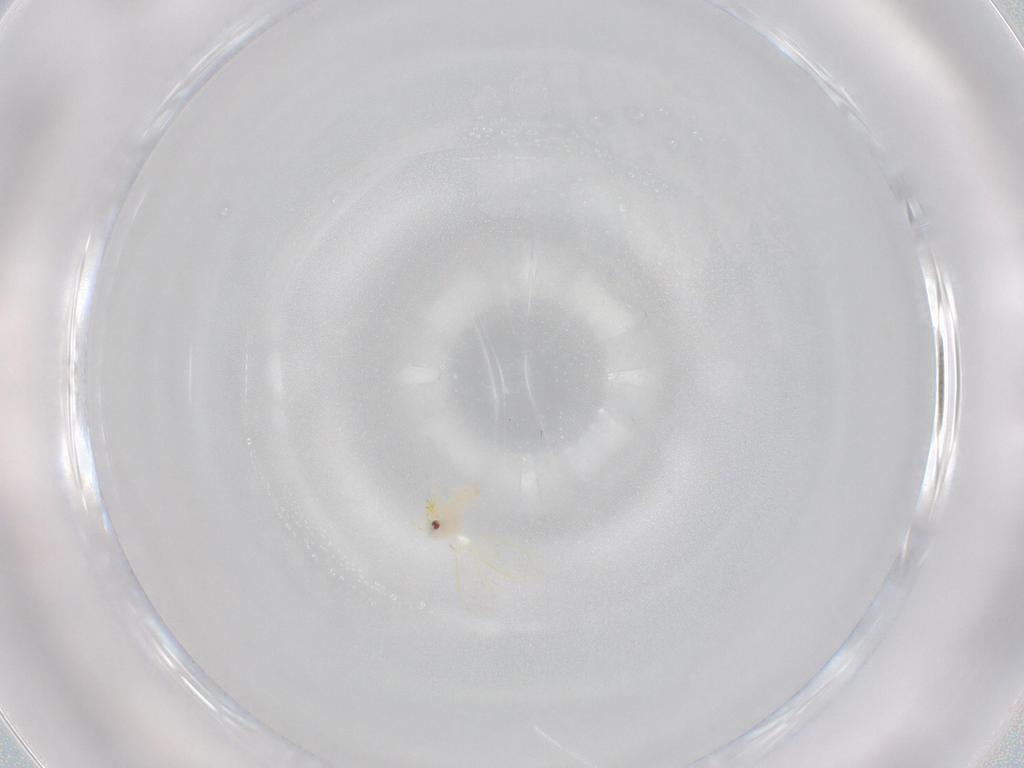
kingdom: Animalia
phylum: Arthropoda
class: Insecta
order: Hemiptera
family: Aleyrodidae
